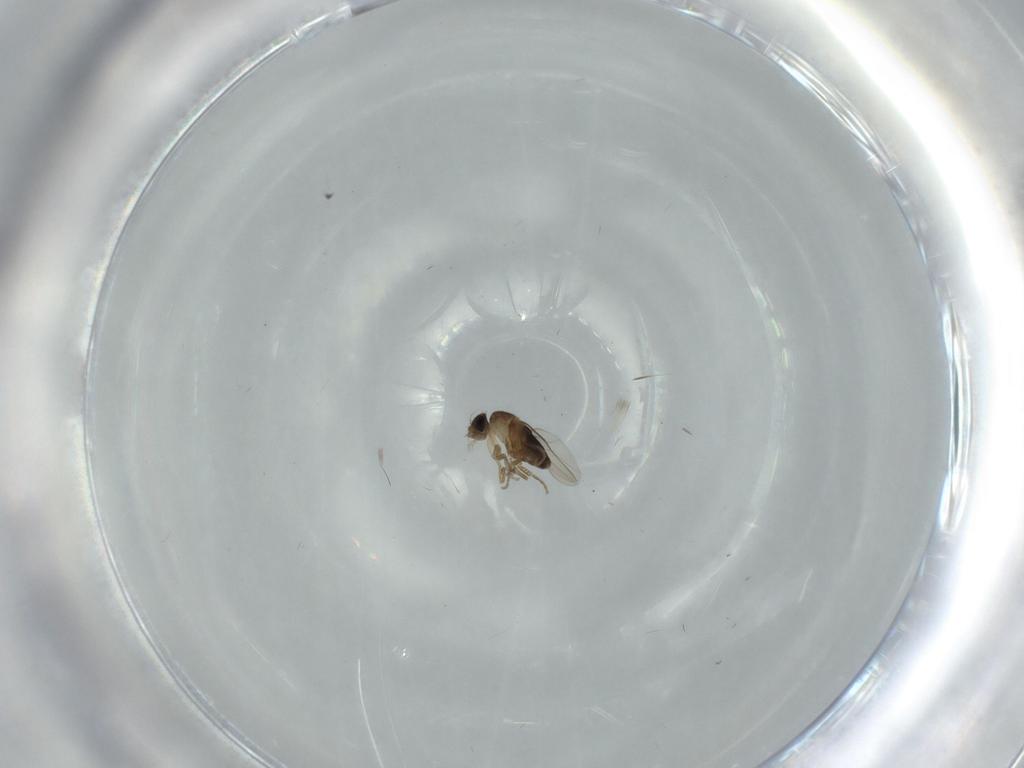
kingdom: Animalia
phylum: Arthropoda
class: Insecta
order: Diptera
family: Phoridae
